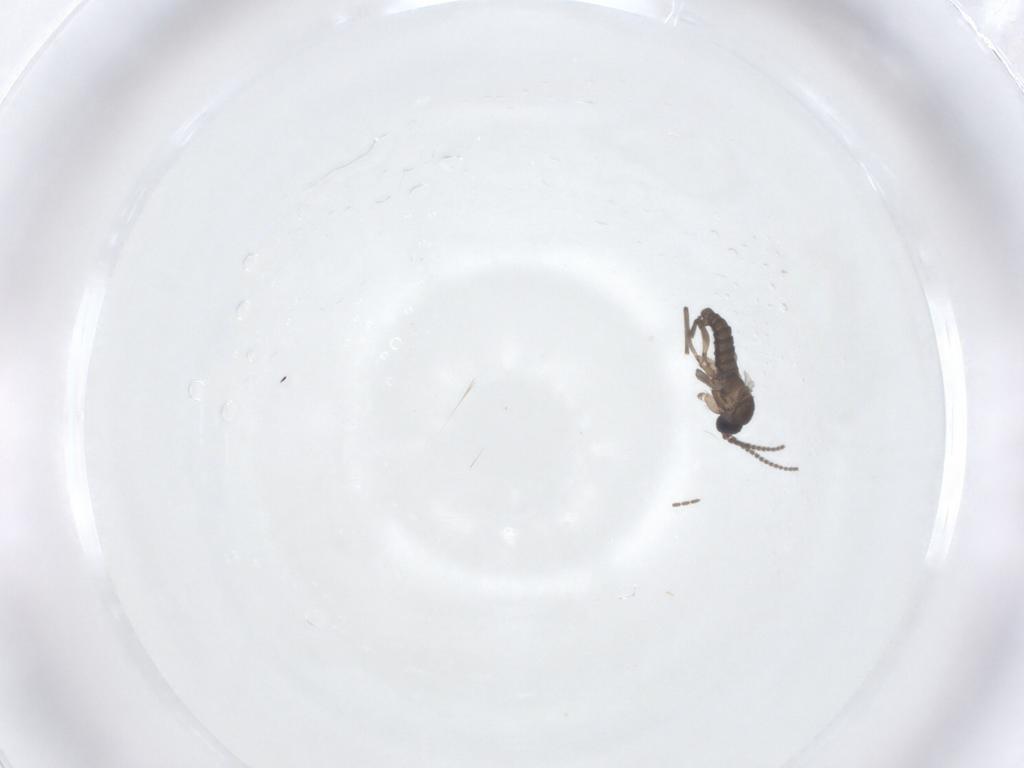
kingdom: Animalia
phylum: Arthropoda
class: Insecta
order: Diptera
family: Sciaridae
